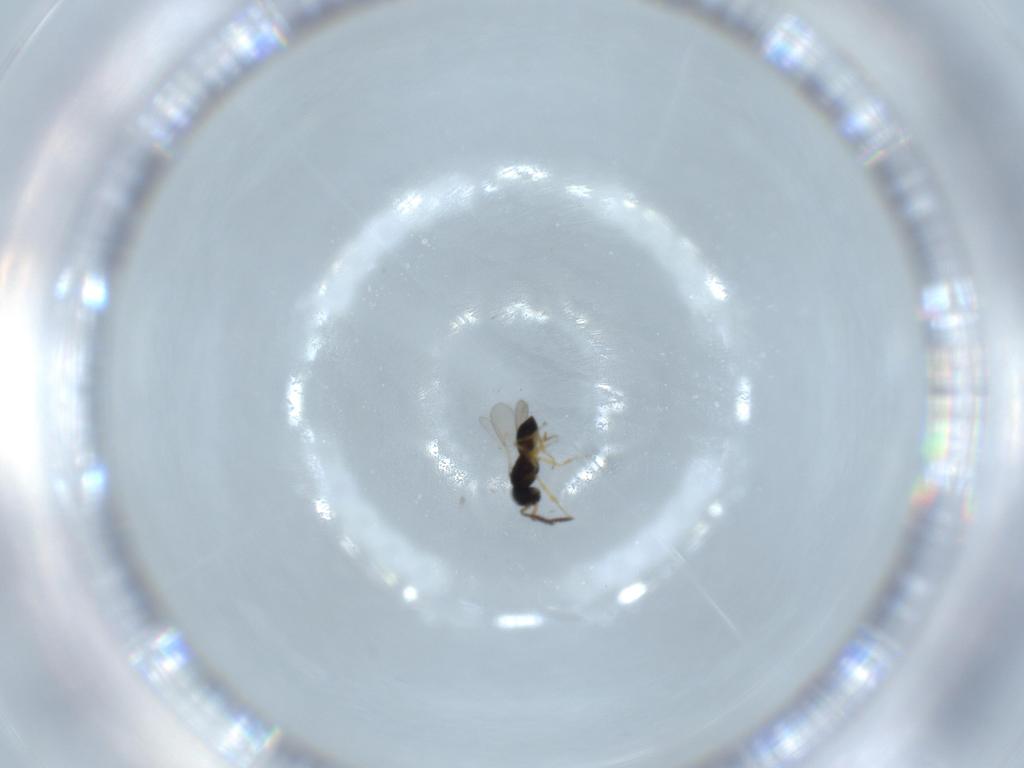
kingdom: Animalia
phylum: Arthropoda
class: Insecta
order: Hymenoptera
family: Scelionidae
